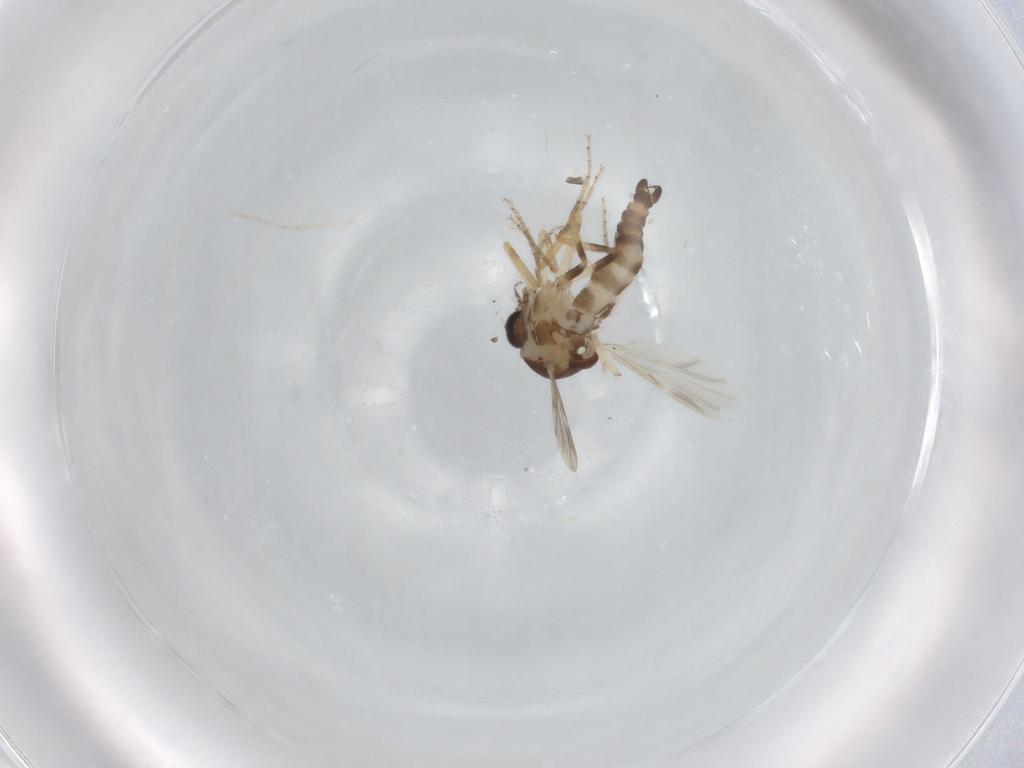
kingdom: Animalia
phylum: Arthropoda
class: Insecta
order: Diptera
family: Ceratopogonidae
